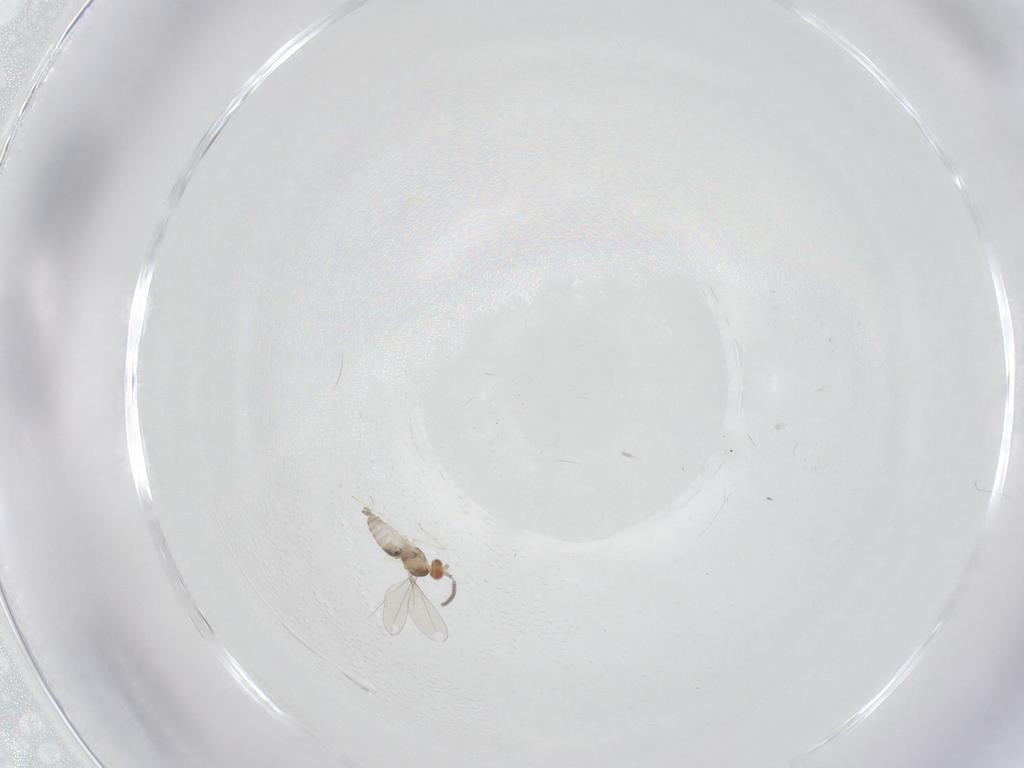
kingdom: Animalia
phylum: Arthropoda
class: Insecta
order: Diptera
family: Cecidomyiidae
